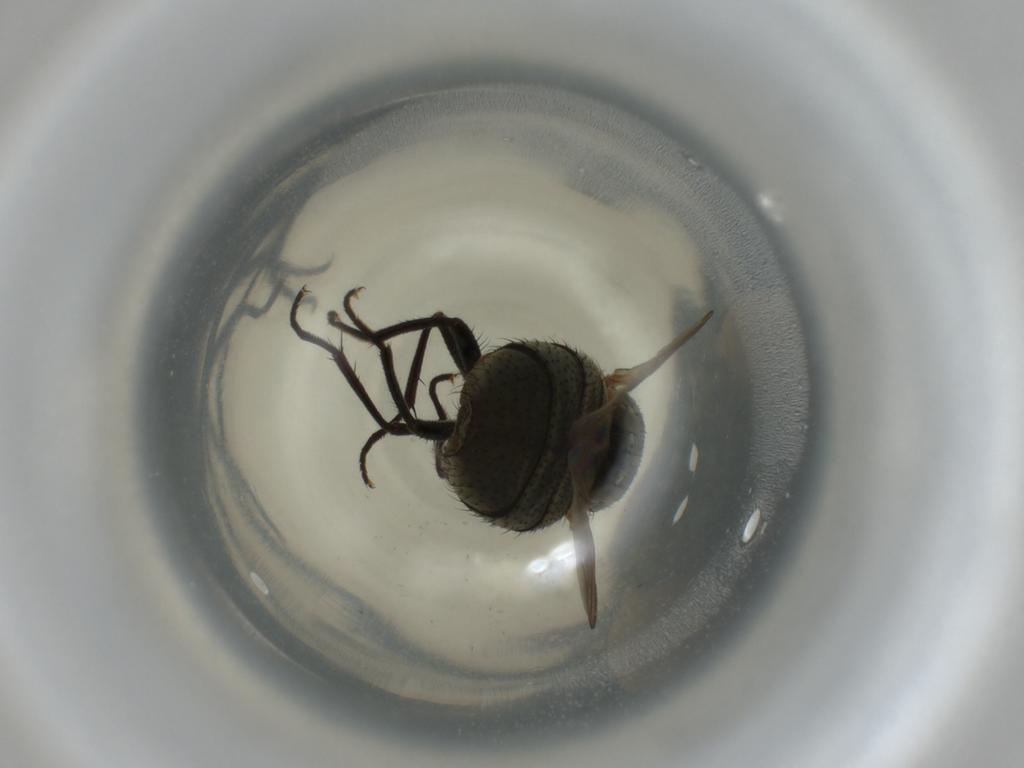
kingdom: Animalia
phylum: Arthropoda
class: Insecta
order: Diptera
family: Muscidae
